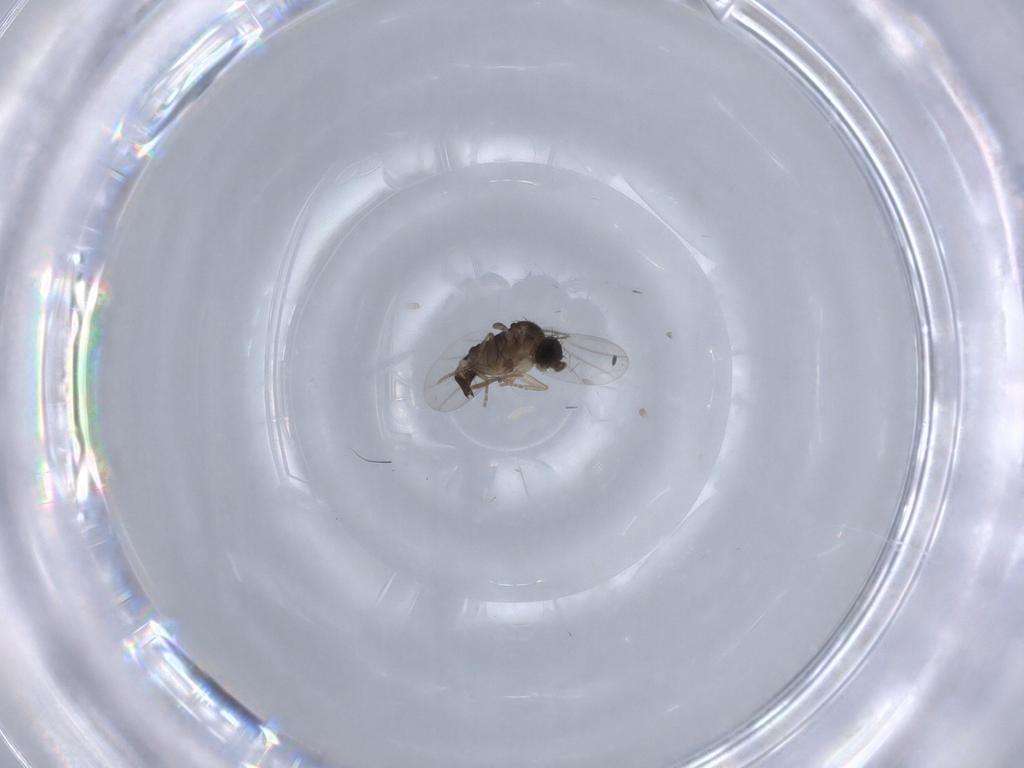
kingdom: Animalia
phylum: Arthropoda
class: Insecta
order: Diptera
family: Phoridae
